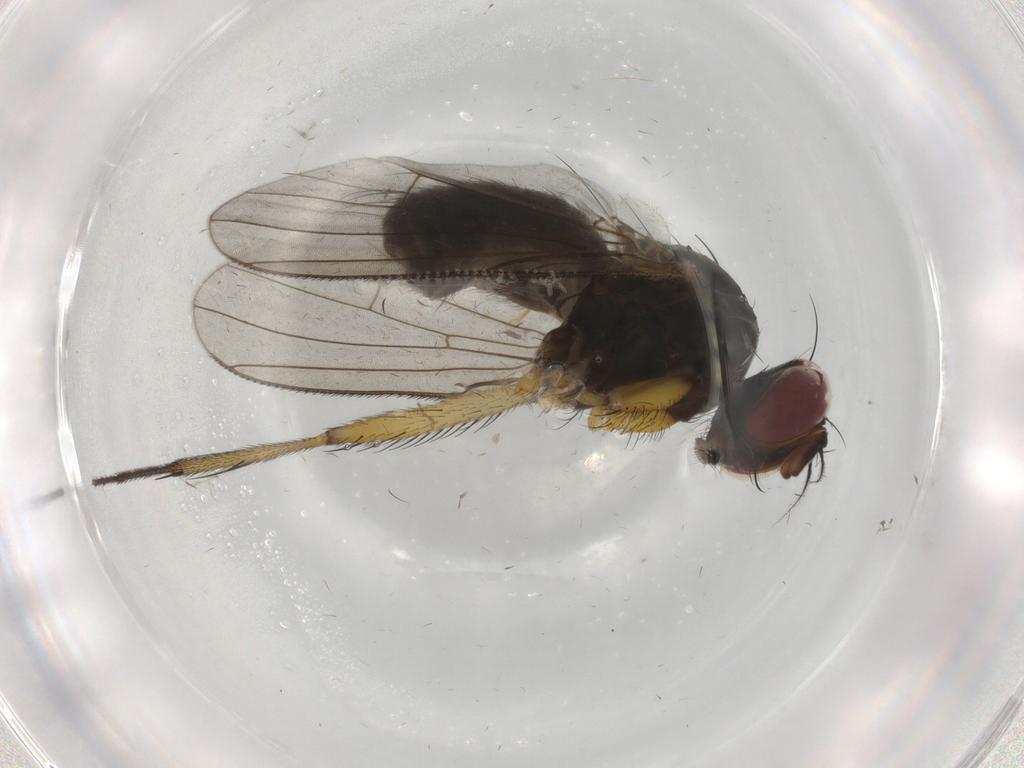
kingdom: Animalia
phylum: Arthropoda
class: Insecta
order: Diptera
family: Muscidae
